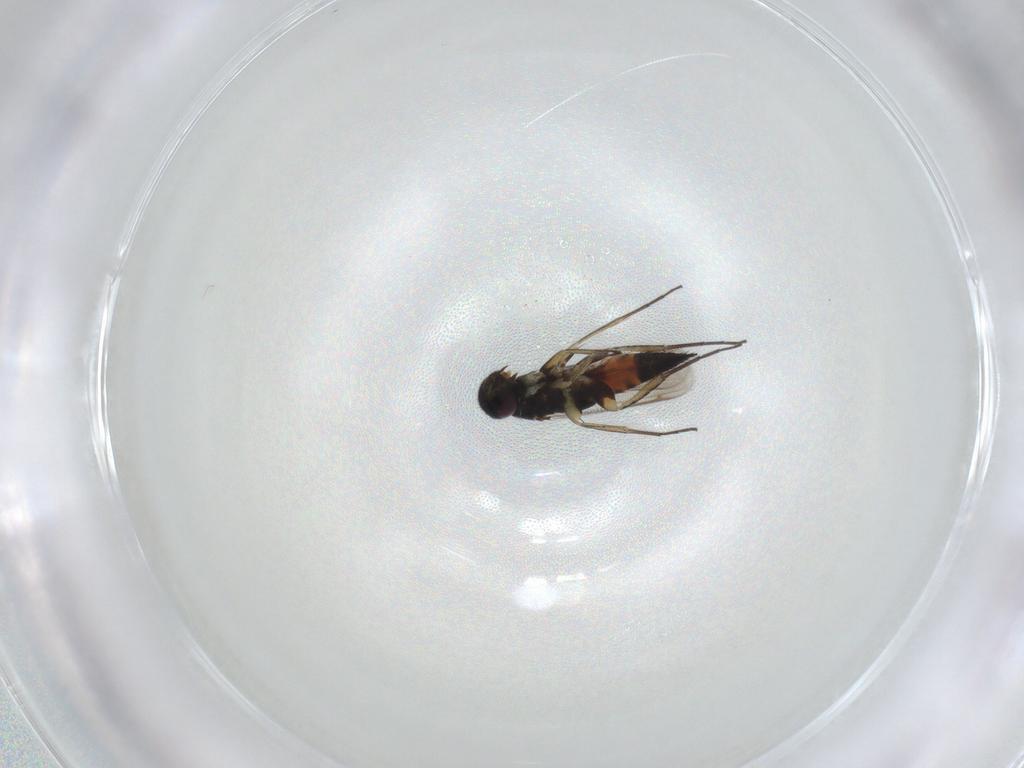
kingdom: Animalia
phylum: Arthropoda
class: Insecta
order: Hymenoptera
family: Eulophidae
